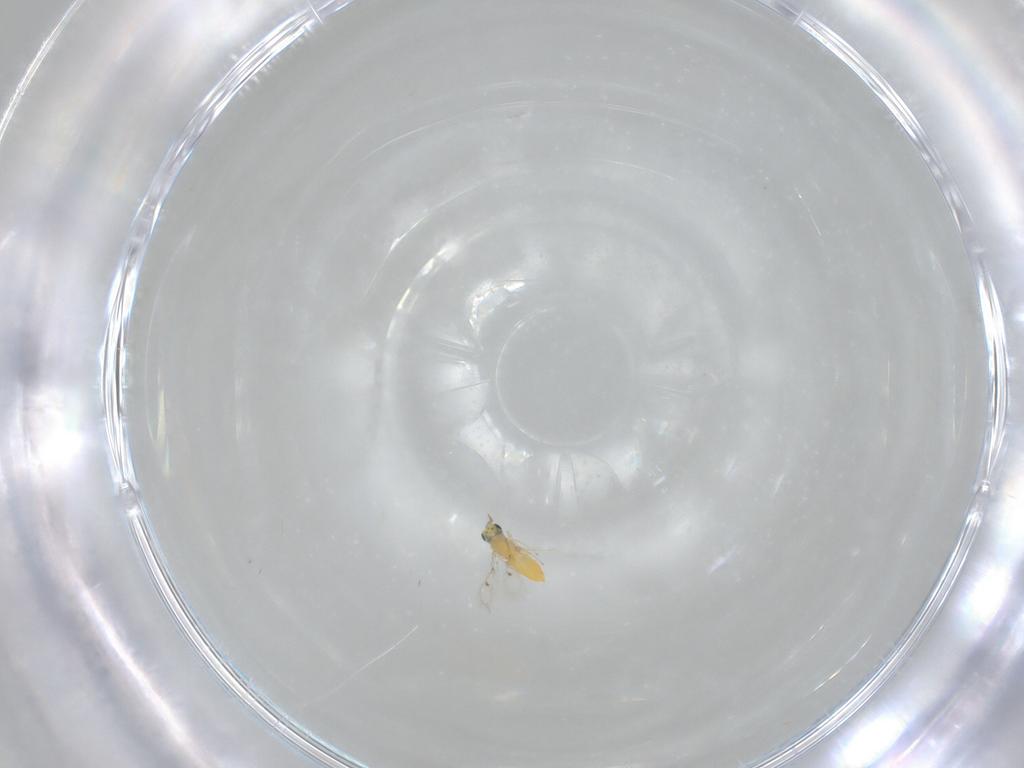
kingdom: Animalia
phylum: Arthropoda
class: Insecta
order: Hymenoptera
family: Trichogrammatidae
